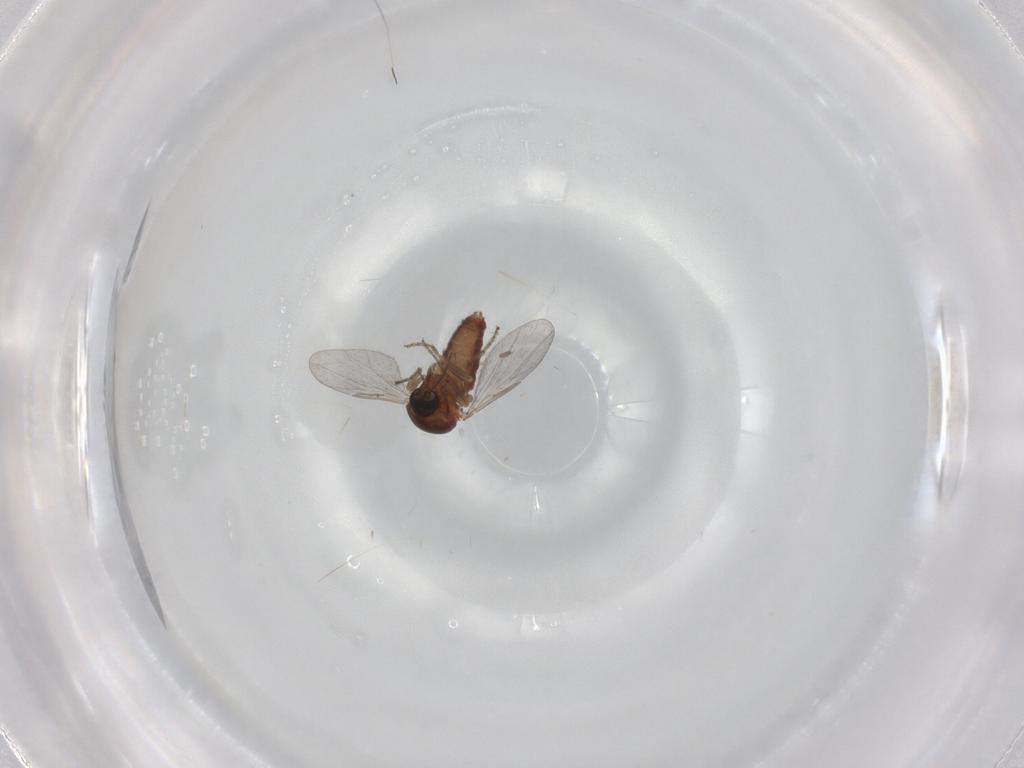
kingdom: Animalia
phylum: Arthropoda
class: Insecta
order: Diptera
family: Ceratopogonidae
